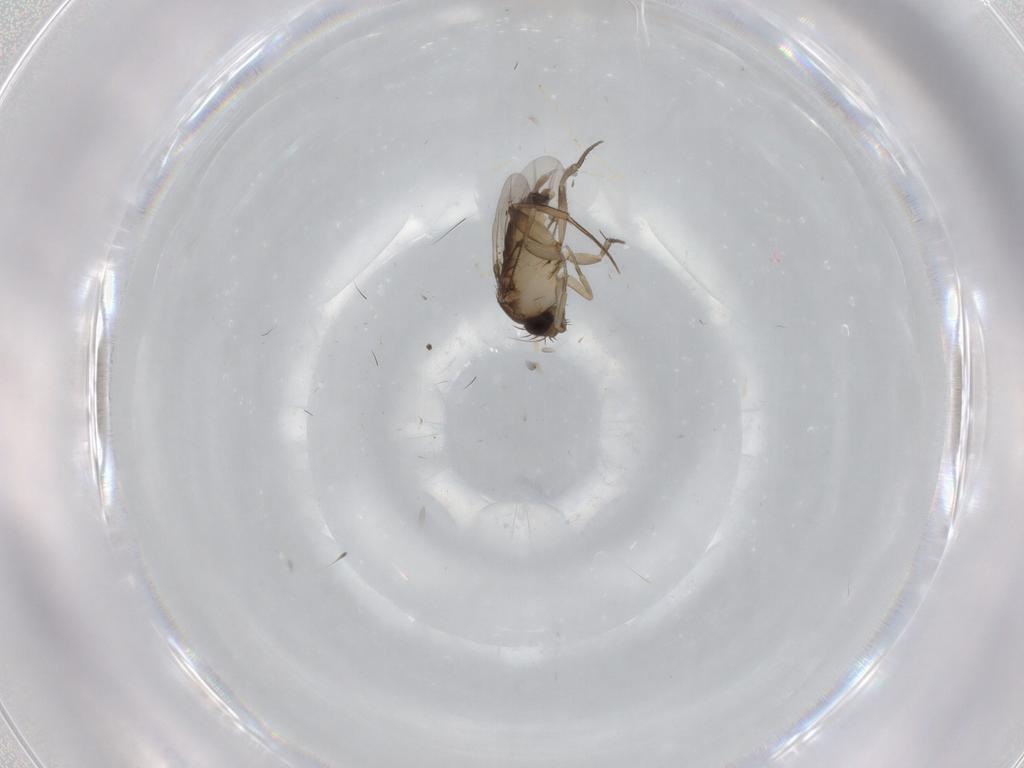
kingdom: Animalia
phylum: Arthropoda
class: Insecta
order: Diptera
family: Phoridae
